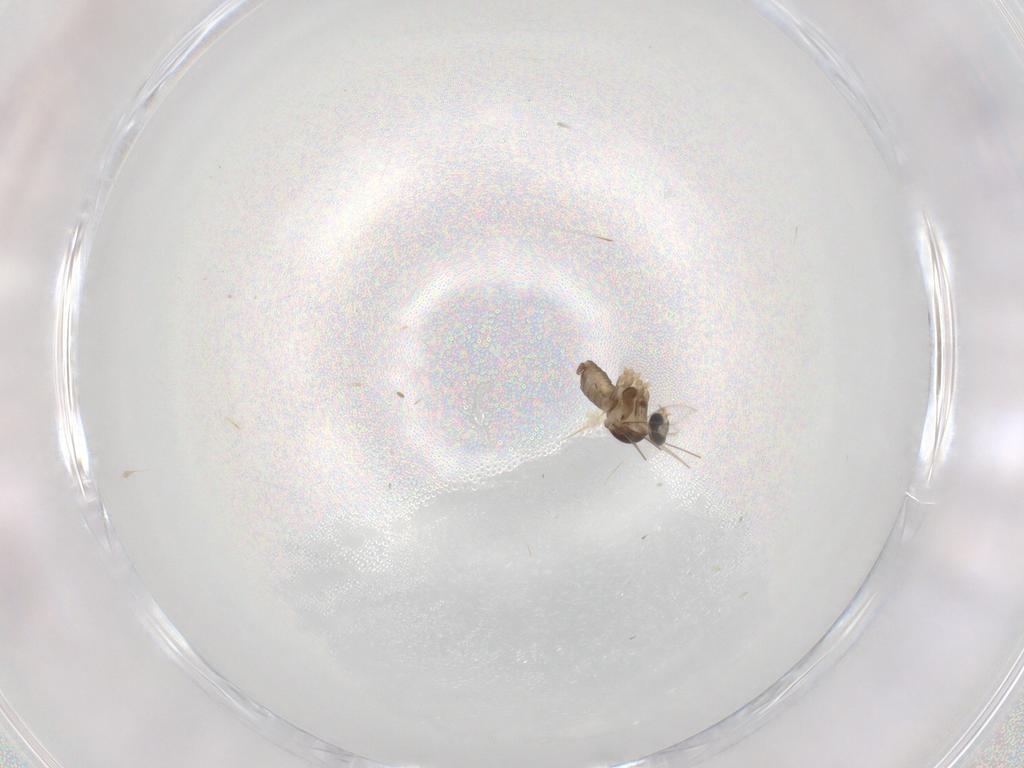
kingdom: Animalia
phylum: Arthropoda
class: Insecta
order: Diptera
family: Cecidomyiidae
